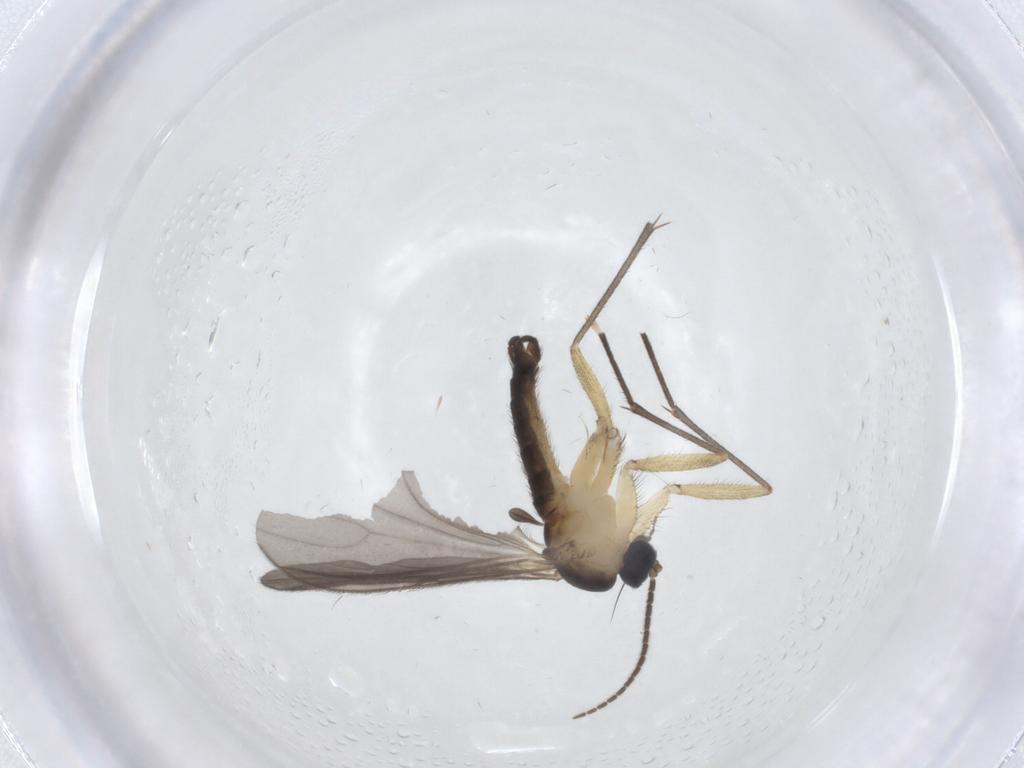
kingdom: Animalia
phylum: Arthropoda
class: Insecta
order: Diptera
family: Sciaridae
